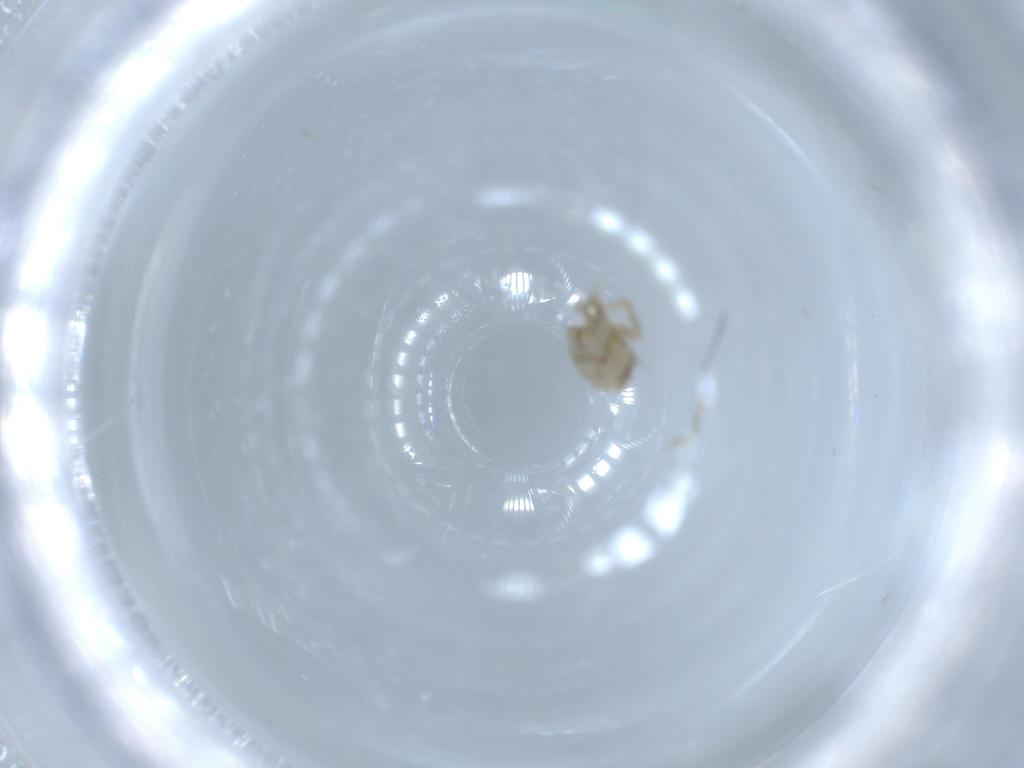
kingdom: Animalia
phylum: Arthropoda
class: Insecta
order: Hemiptera
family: Acanaloniidae
